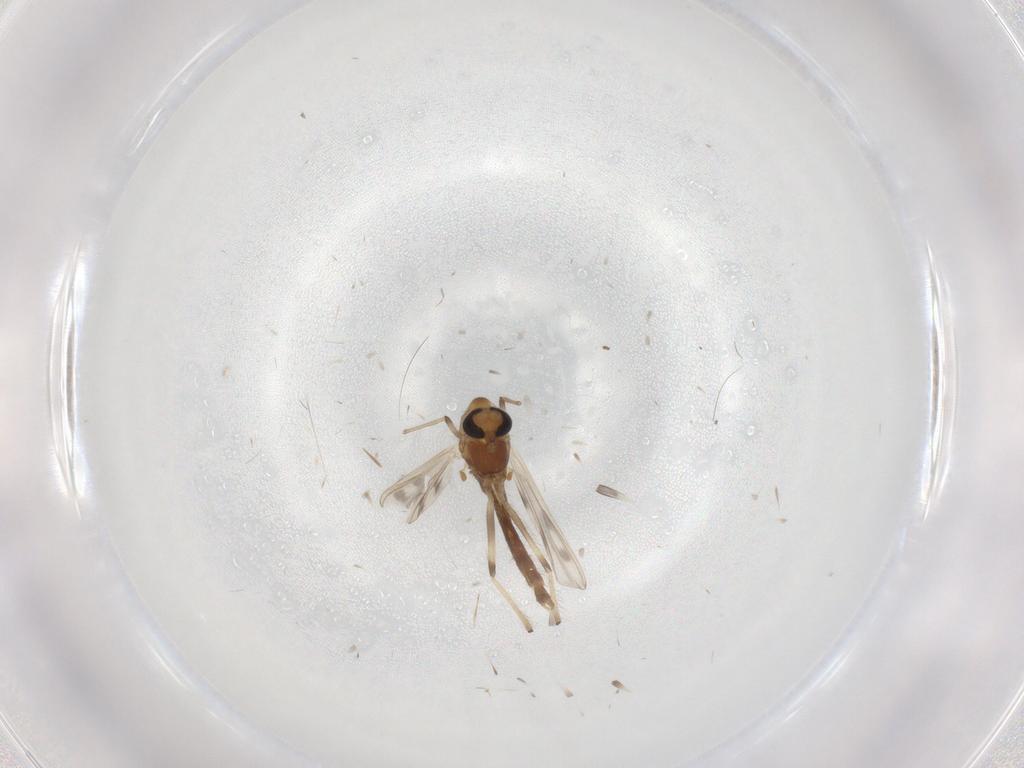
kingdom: Animalia
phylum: Arthropoda
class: Insecta
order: Diptera
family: Chironomidae
